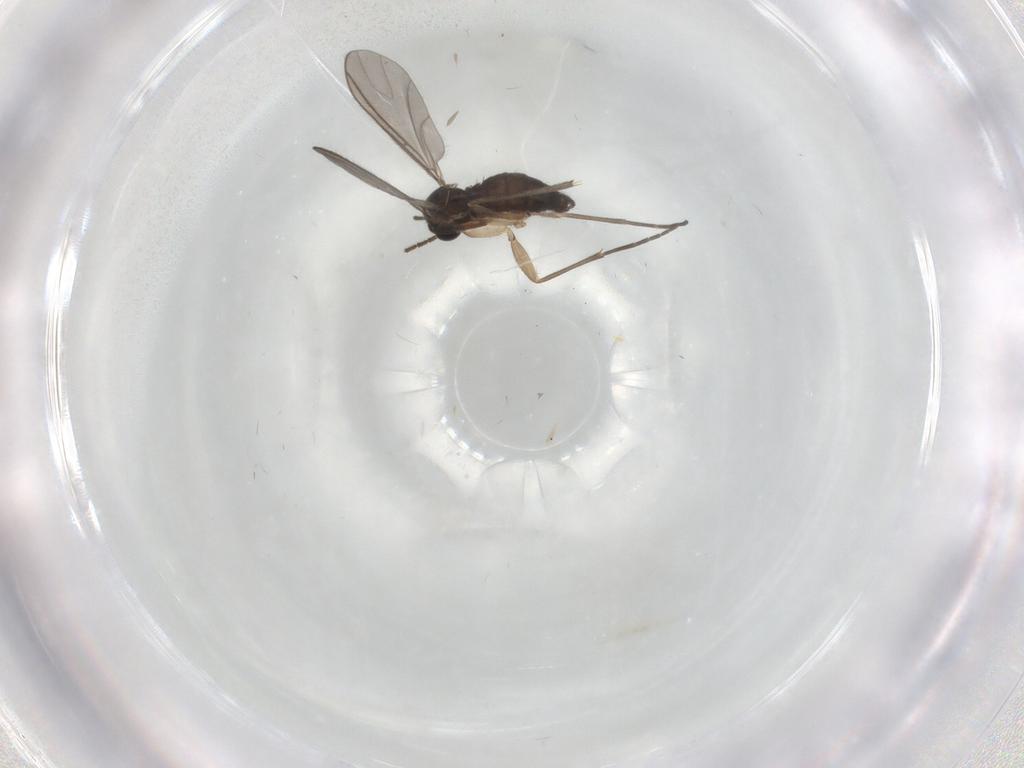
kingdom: Animalia
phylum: Arthropoda
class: Insecta
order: Diptera
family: Sciaridae
